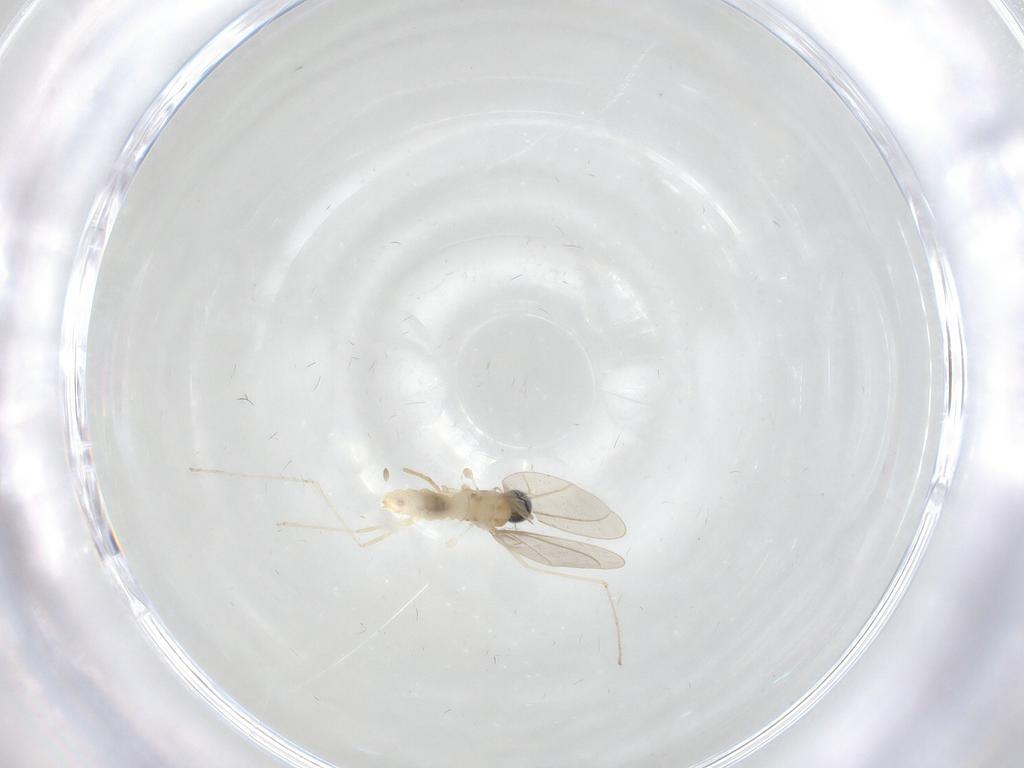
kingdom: Animalia
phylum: Arthropoda
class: Insecta
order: Diptera
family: Cecidomyiidae
